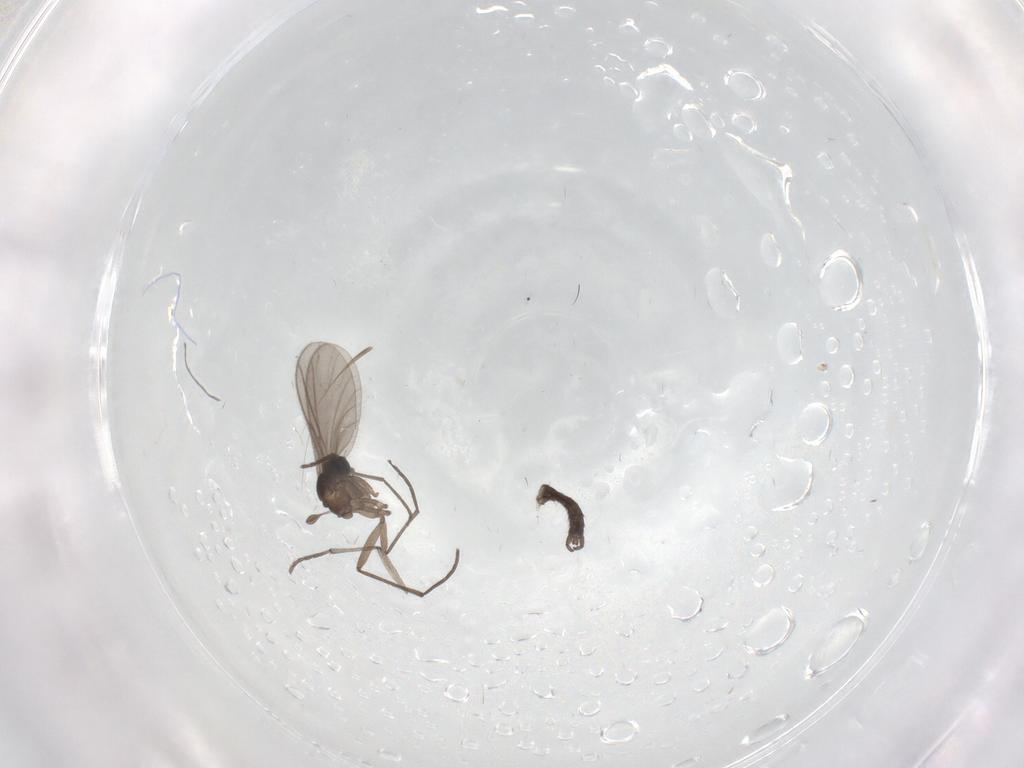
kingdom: Animalia
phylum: Arthropoda
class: Insecta
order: Diptera
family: Sciaridae
